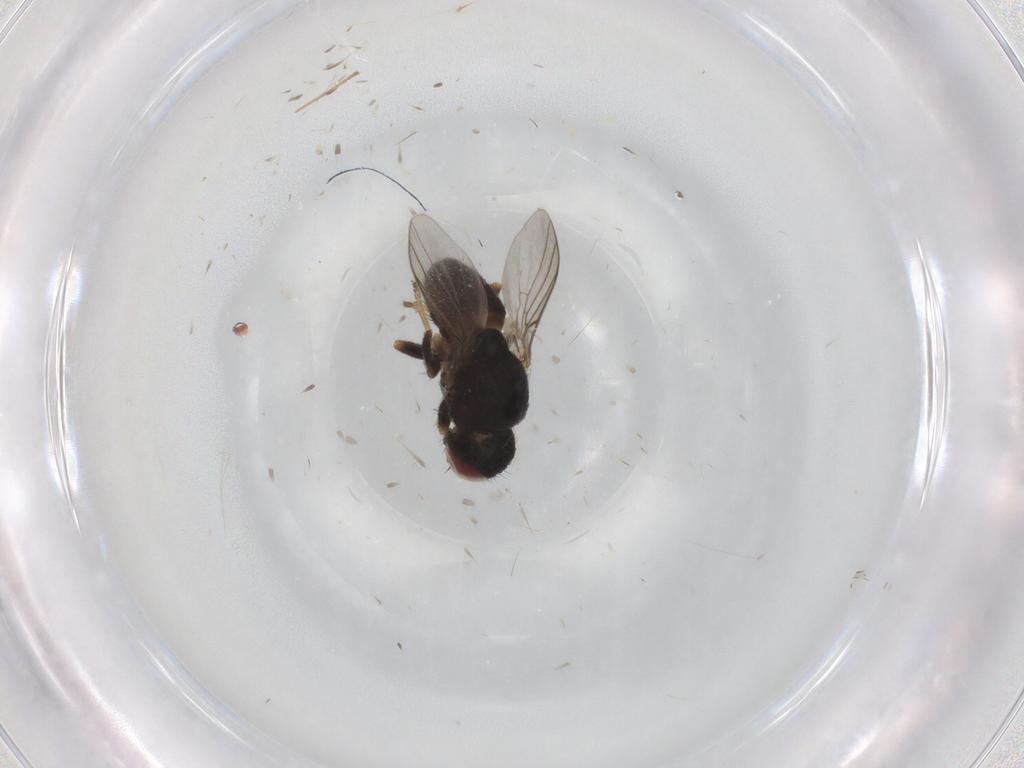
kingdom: Animalia
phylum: Arthropoda
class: Insecta
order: Diptera
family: Chloropidae
